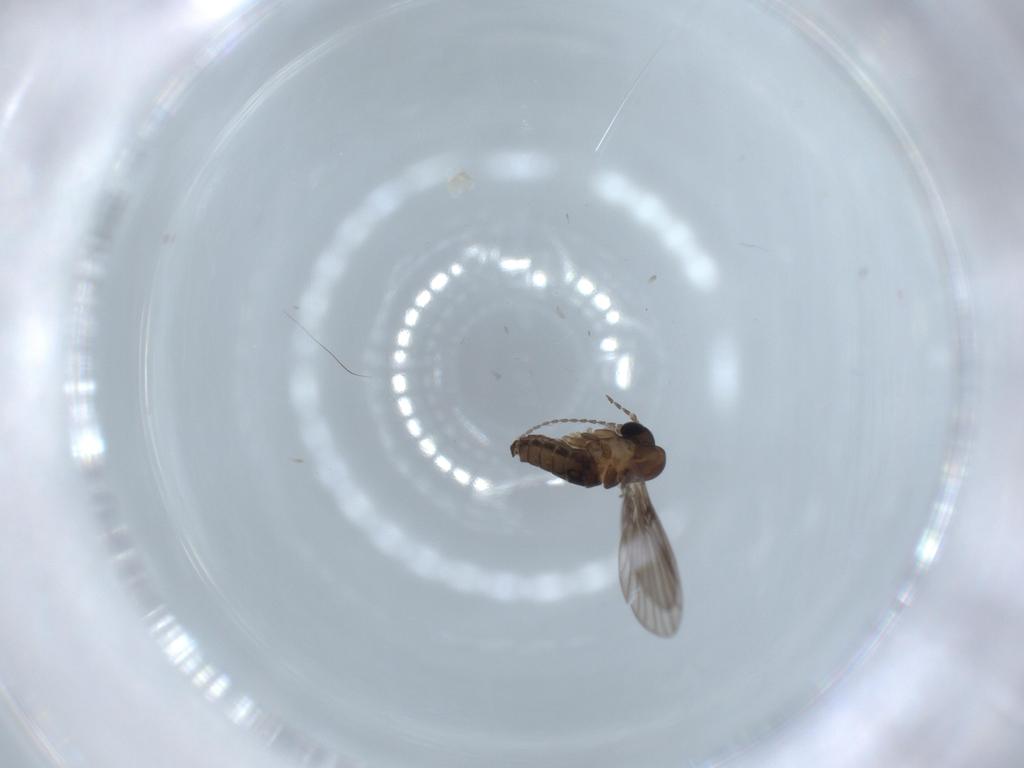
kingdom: Animalia
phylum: Arthropoda
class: Insecta
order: Diptera
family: Psychodidae
